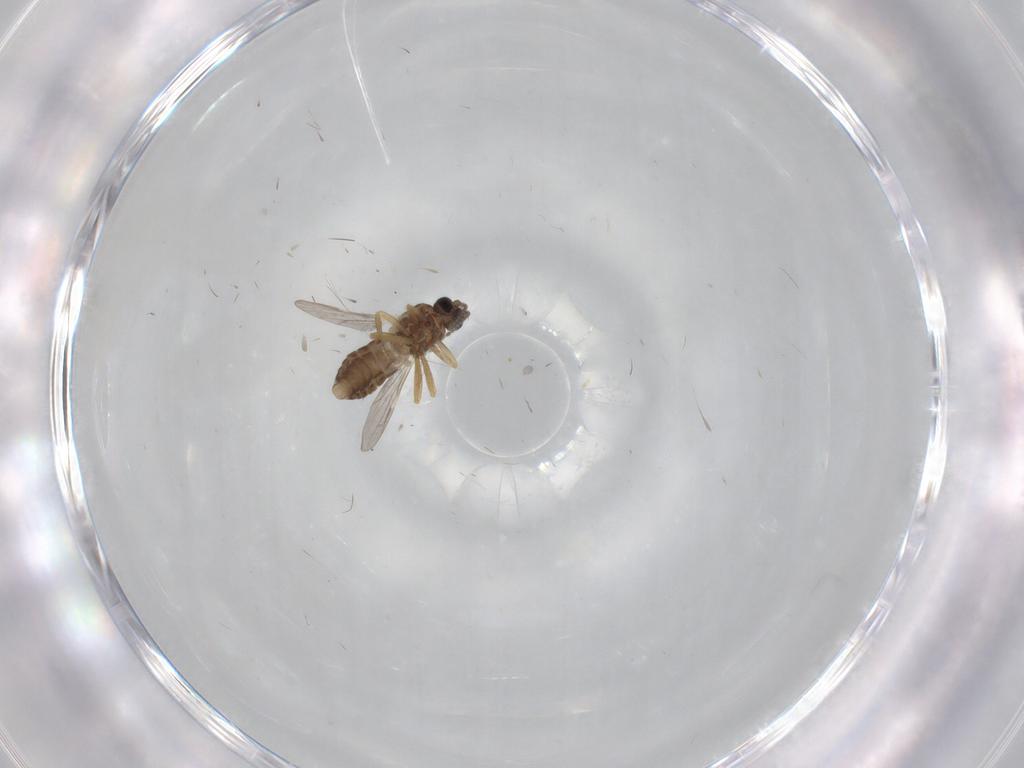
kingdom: Animalia
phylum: Arthropoda
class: Insecta
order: Diptera
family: Ceratopogonidae
